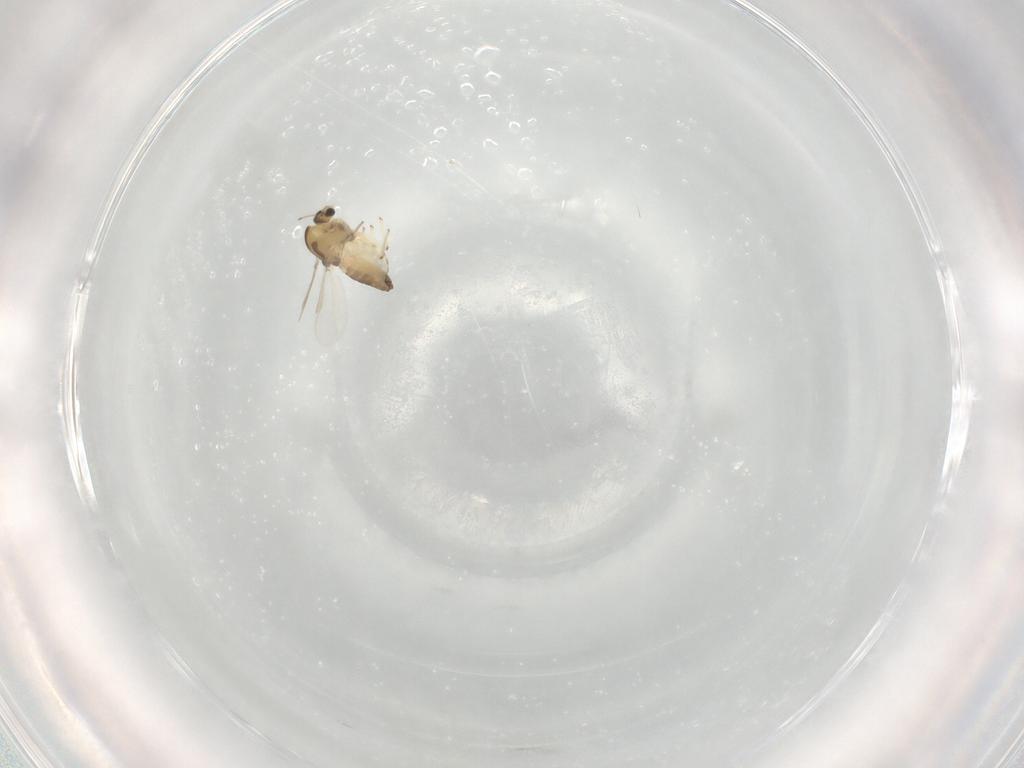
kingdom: Animalia
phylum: Arthropoda
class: Insecta
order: Diptera
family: Chironomidae
